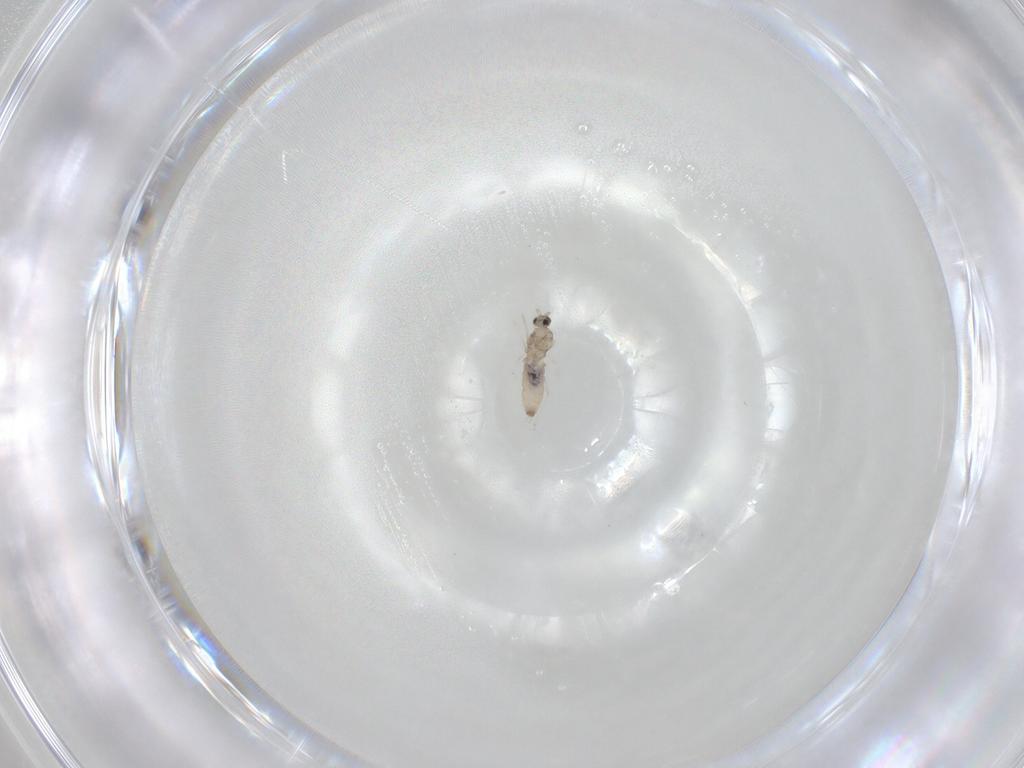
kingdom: Animalia
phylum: Arthropoda
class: Insecta
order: Diptera
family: Cecidomyiidae
